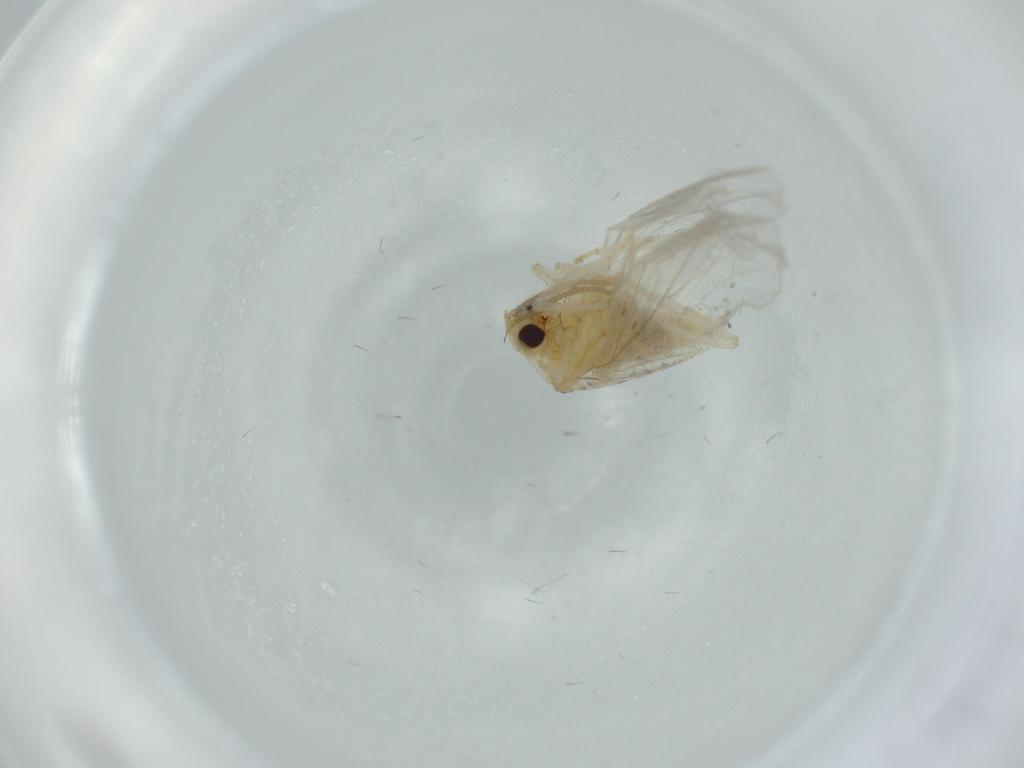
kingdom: Animalia
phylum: Arthropoda
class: Insecta
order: Neuroptera
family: Coniopterygidae
